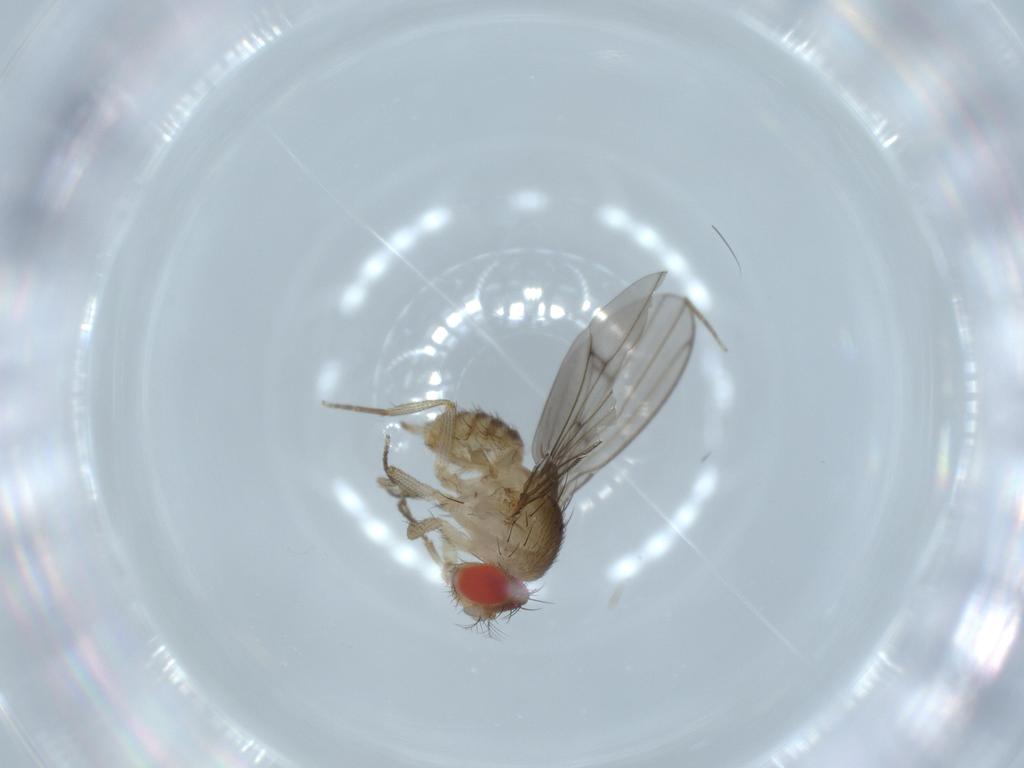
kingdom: Animalia
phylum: Arthropoda
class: Insecta
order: Diptera
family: Drosophilidae
